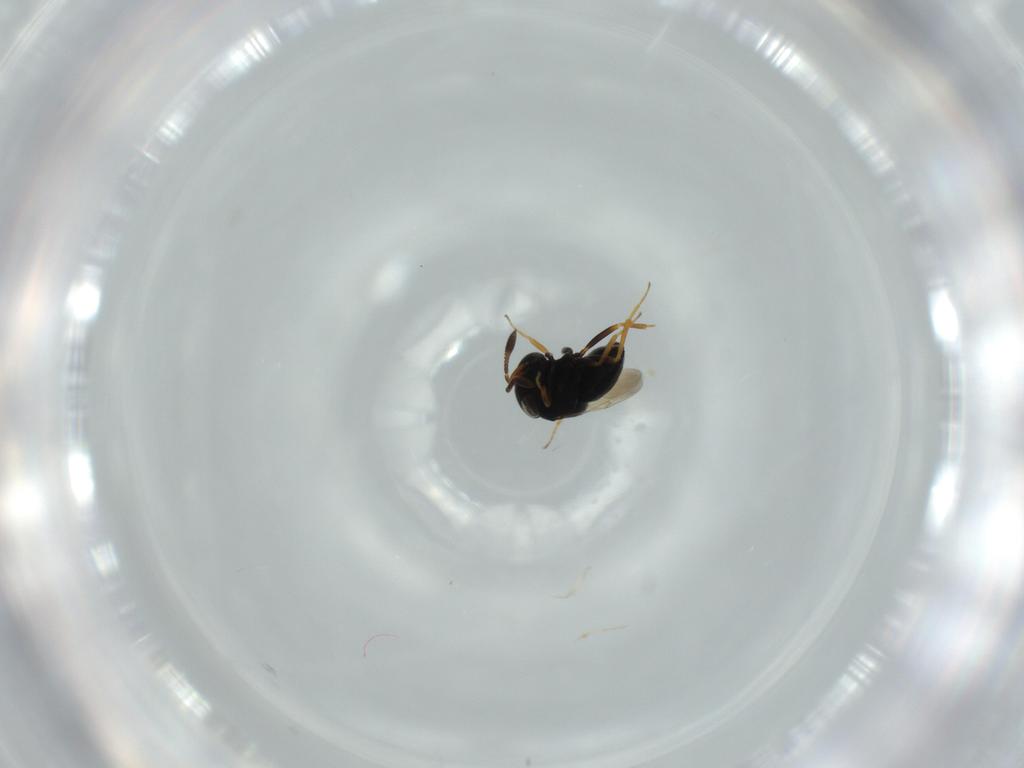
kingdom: Animalia
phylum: Arthropoda
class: Insecta
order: Hymenoptera
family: Scelionidae
